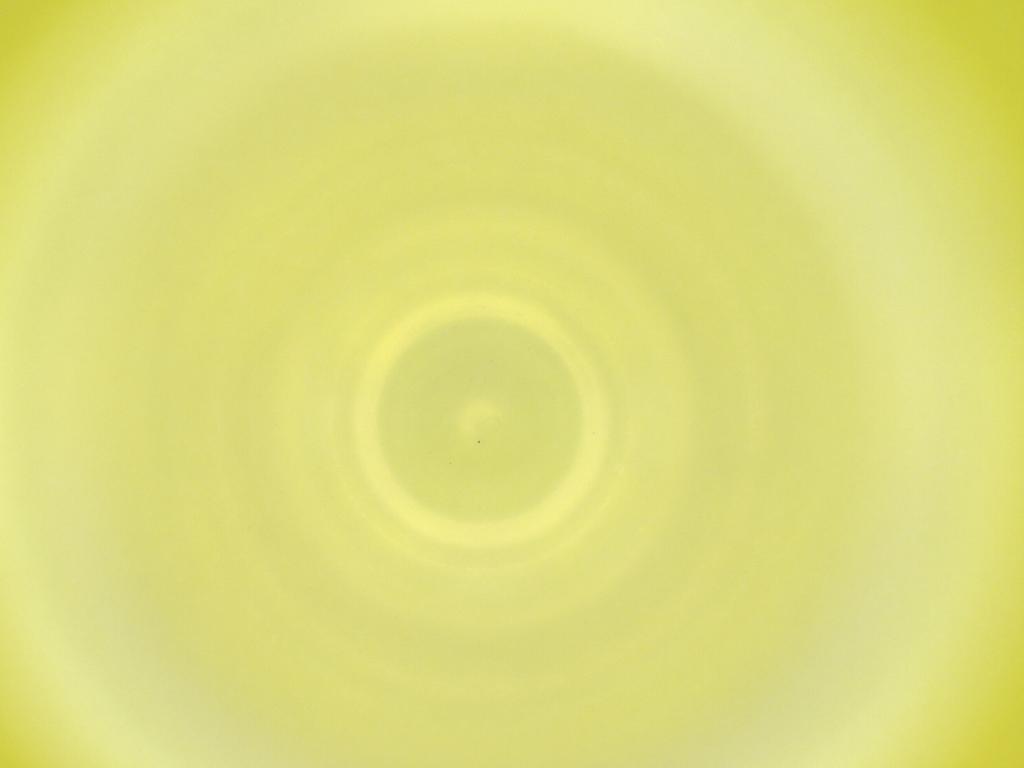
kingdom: Animalia
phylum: Arthropoda
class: Insecta
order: Diptera
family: Cecidomyiidae
